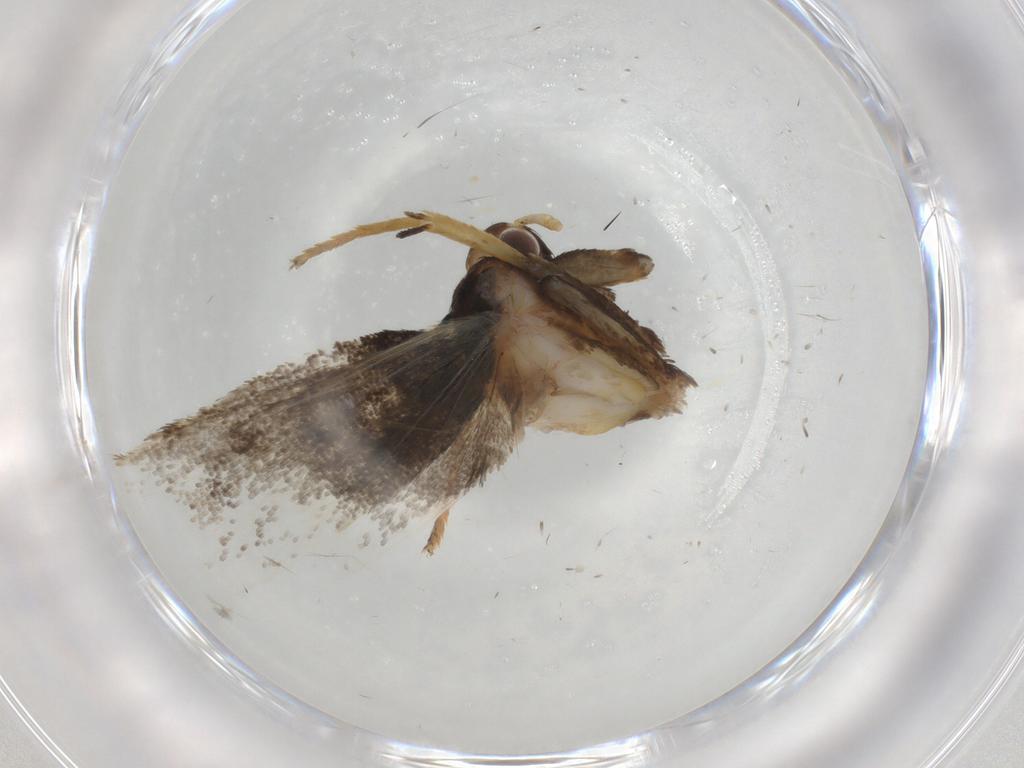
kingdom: Animalia
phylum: Arthropoda
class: Insecta
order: Lepidoptera
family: Lecithoceridae
